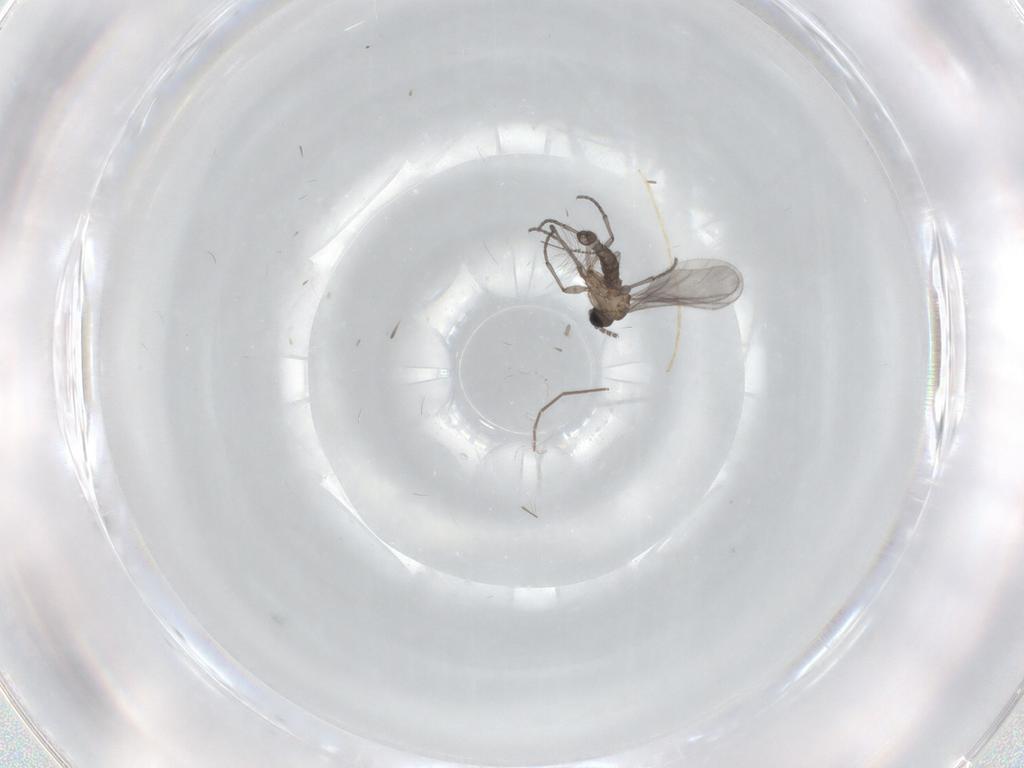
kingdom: Animalia
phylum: Arthropoda
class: Insecta
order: Diptera
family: Sciaridae
